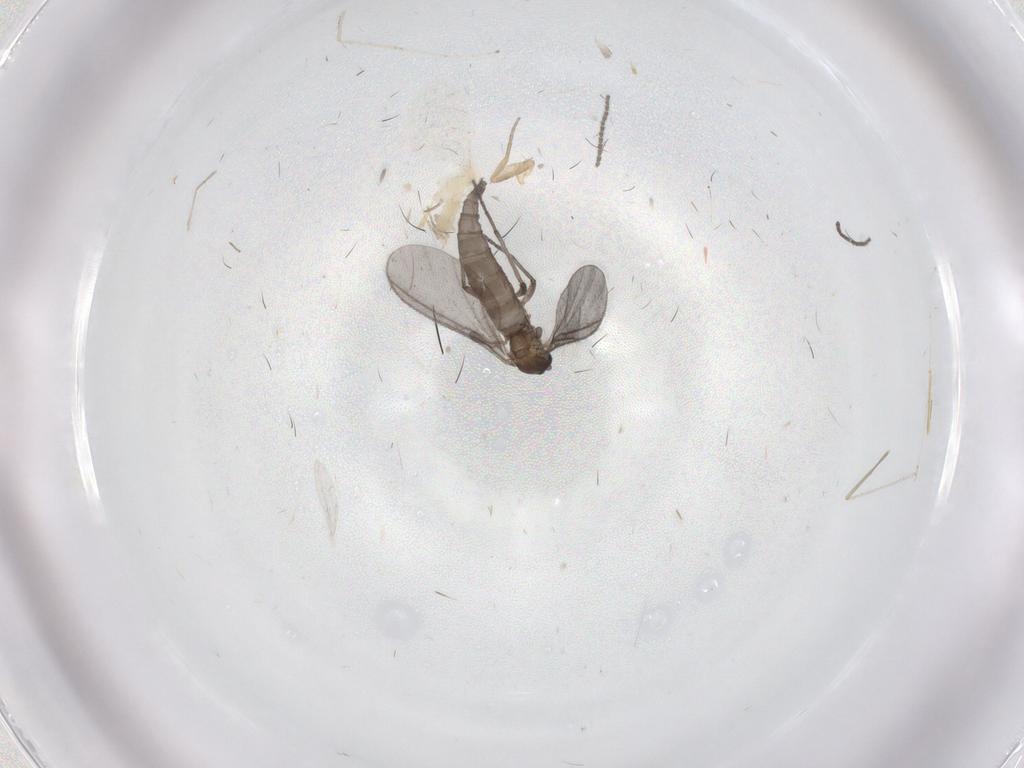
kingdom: Animalia
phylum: Arthropoda
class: Insecta
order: Diptera
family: Sciaridae
